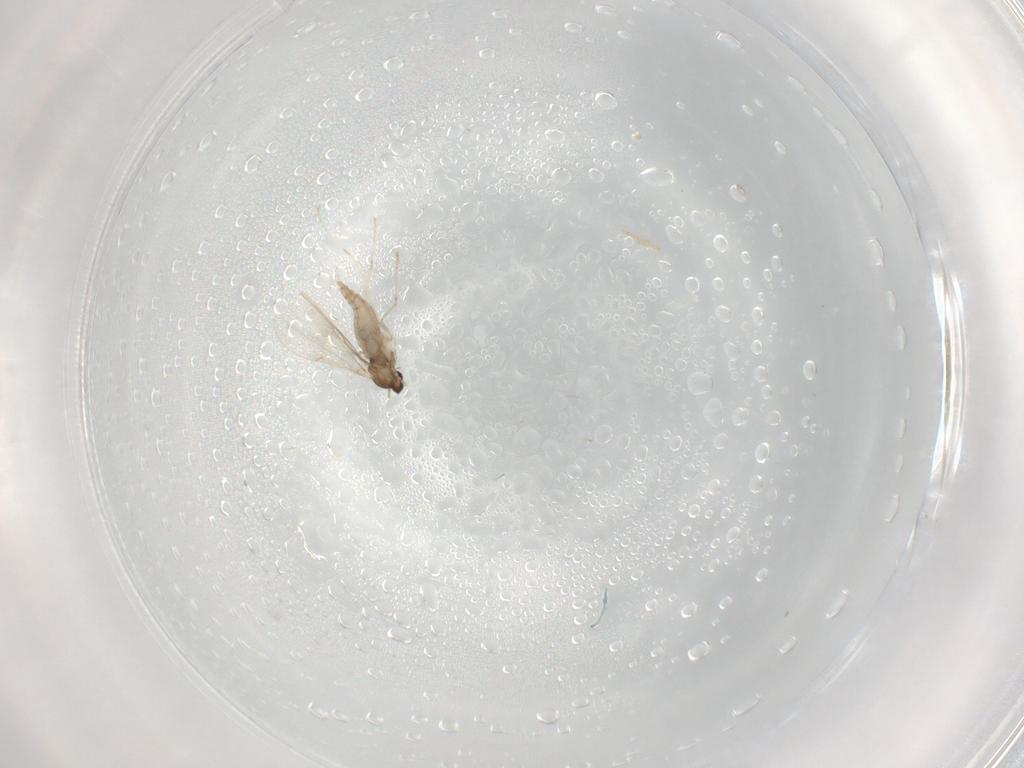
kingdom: Animalia
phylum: Arthropoda
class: Insecta
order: Diptera
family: Cecidomyiidae
